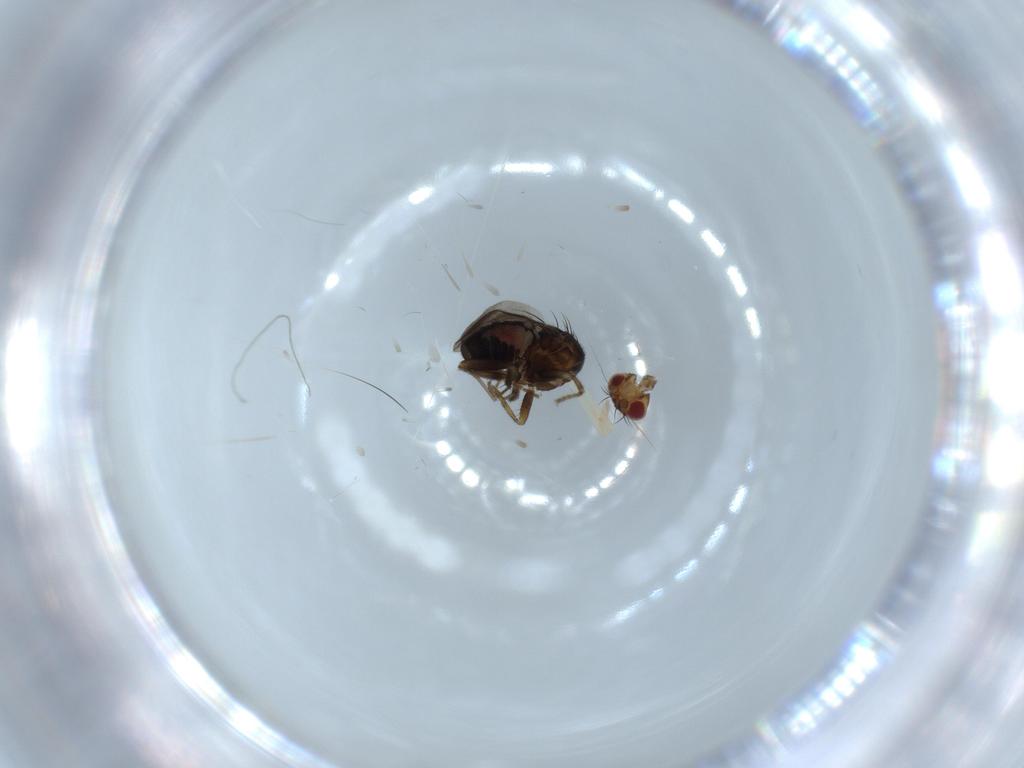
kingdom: Animalia
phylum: Arthropoda
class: Insecta
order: Diptera
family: Chironomidae
